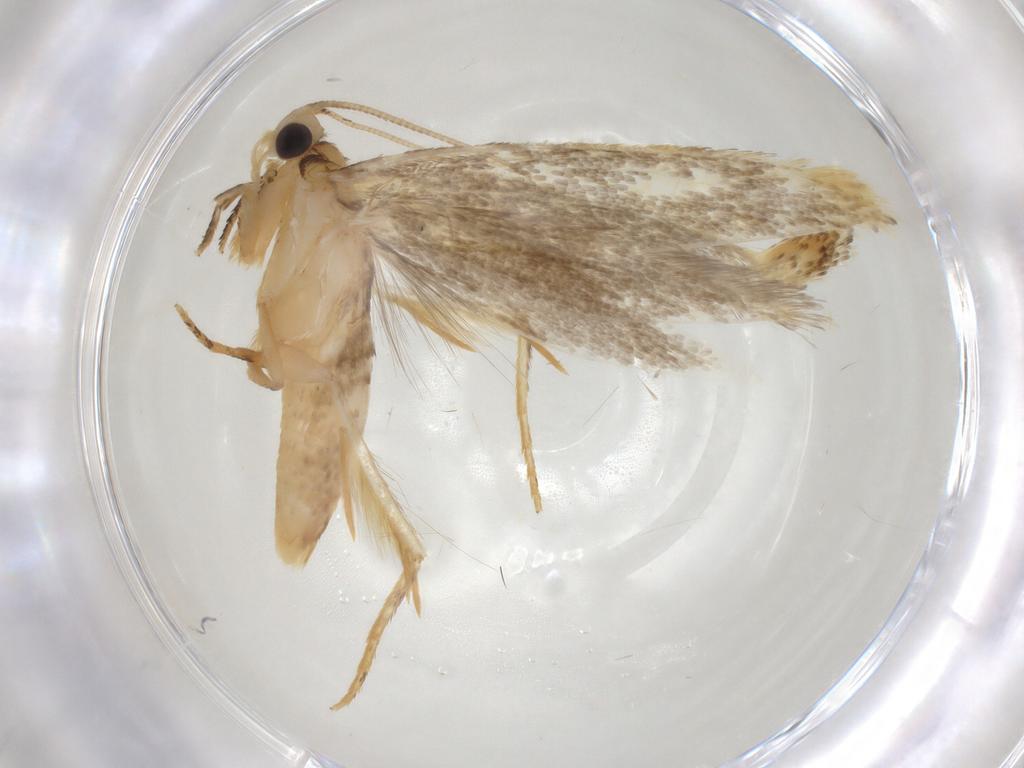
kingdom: Animalia
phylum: Arthropoda
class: Insecta
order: Lepidoptera
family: Tineidae
